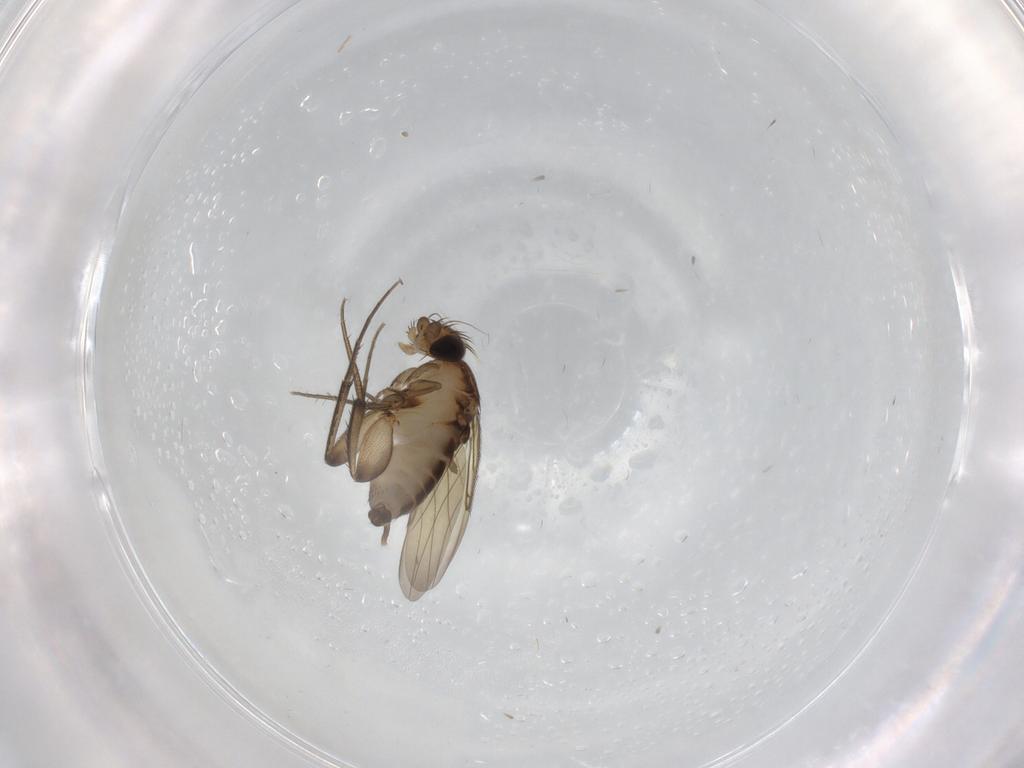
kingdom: Animalia
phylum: Arthropoda
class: Insecta
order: Diptera
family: Phoridae
